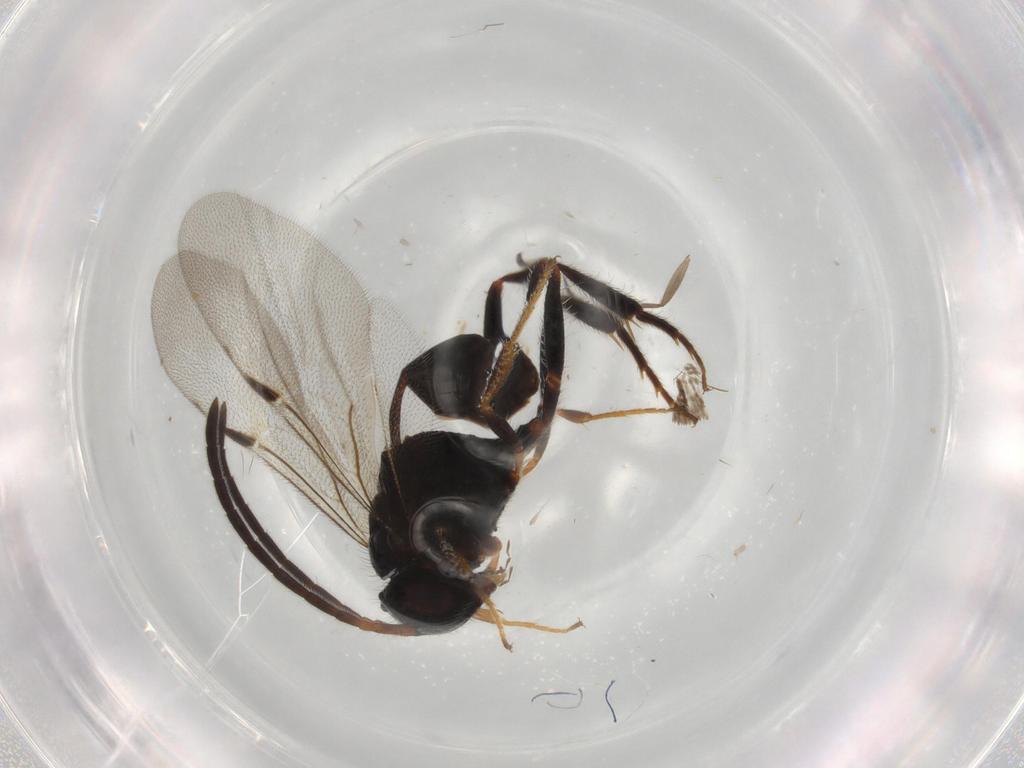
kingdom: Animalia
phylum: Arthropoda
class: Insecta
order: Hymenoptera
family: Evaniidae
